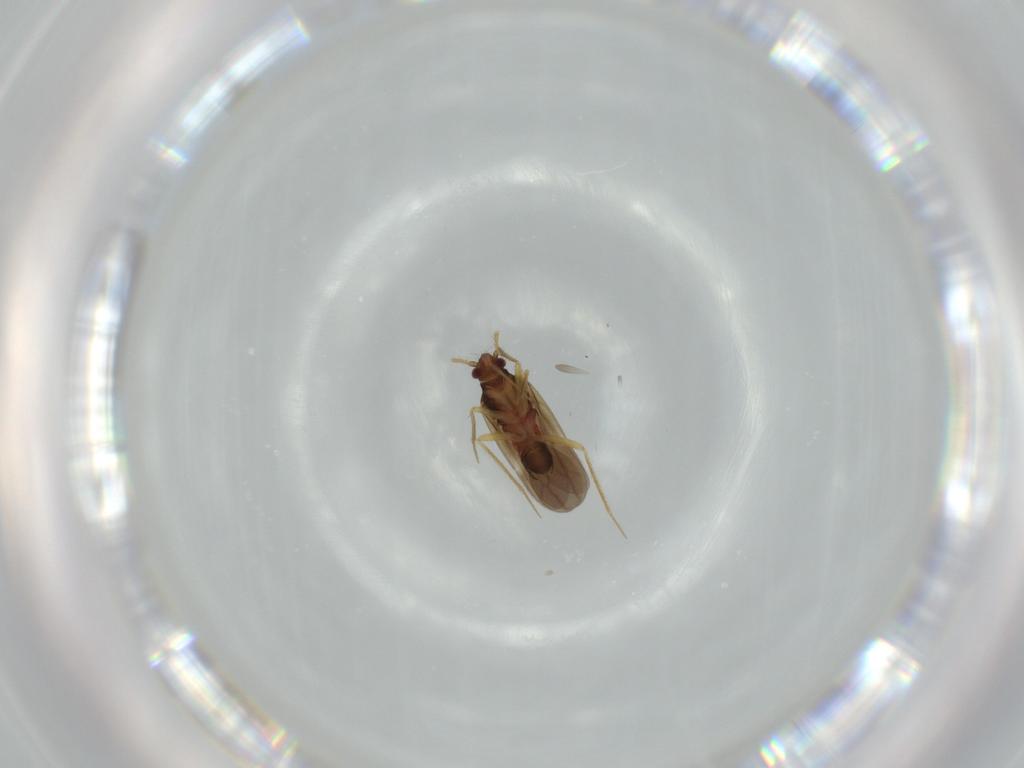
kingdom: Animalia
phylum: Arthropoda
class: Insecta
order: Hemiptera
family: Ceratocombidae
